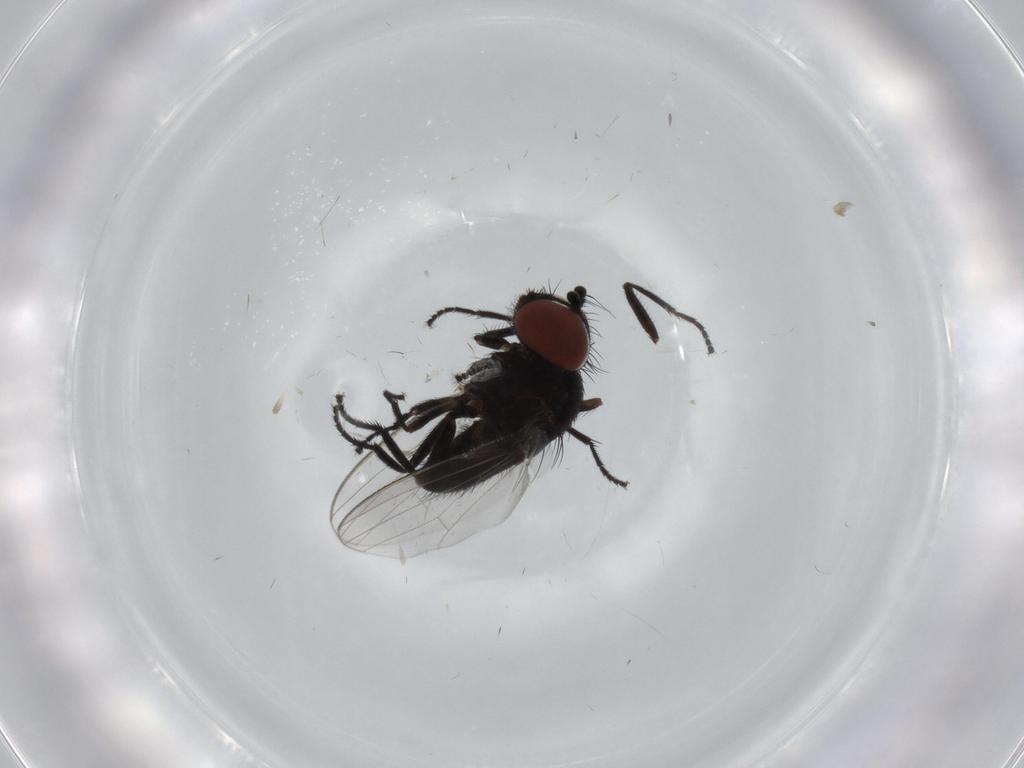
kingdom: Animalia
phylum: Arthropoda
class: Insecta
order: Diptera
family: Milichiidae
